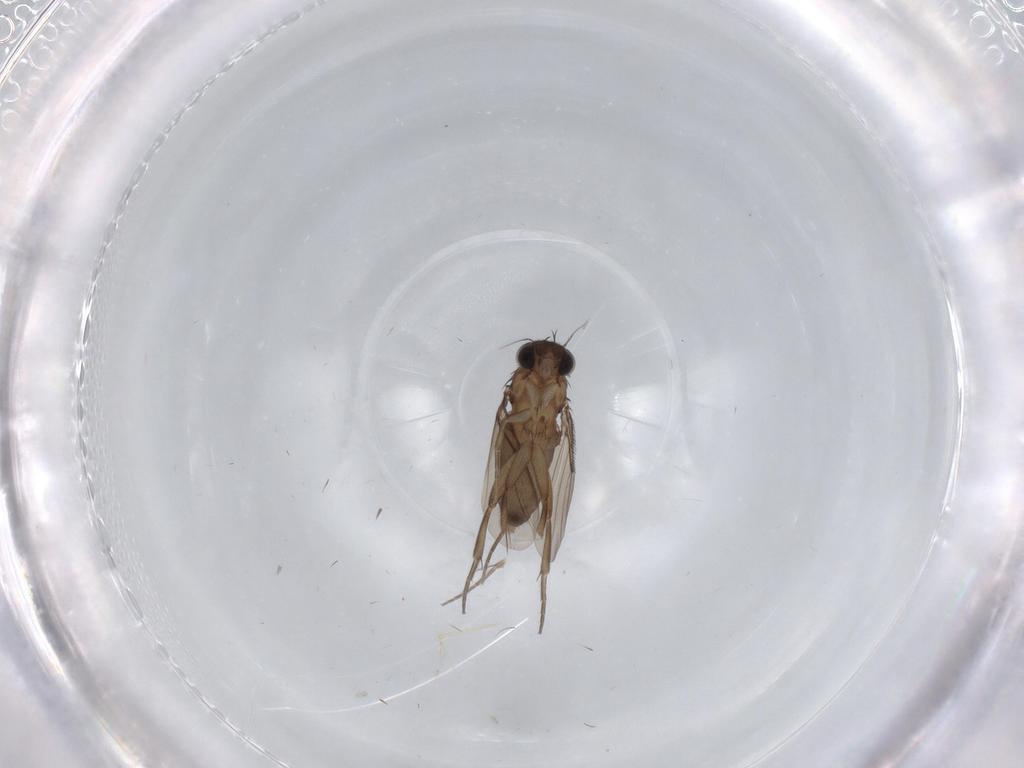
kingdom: Animalia
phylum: Arthropoda
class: Insecta
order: Diptera
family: Phoridae
